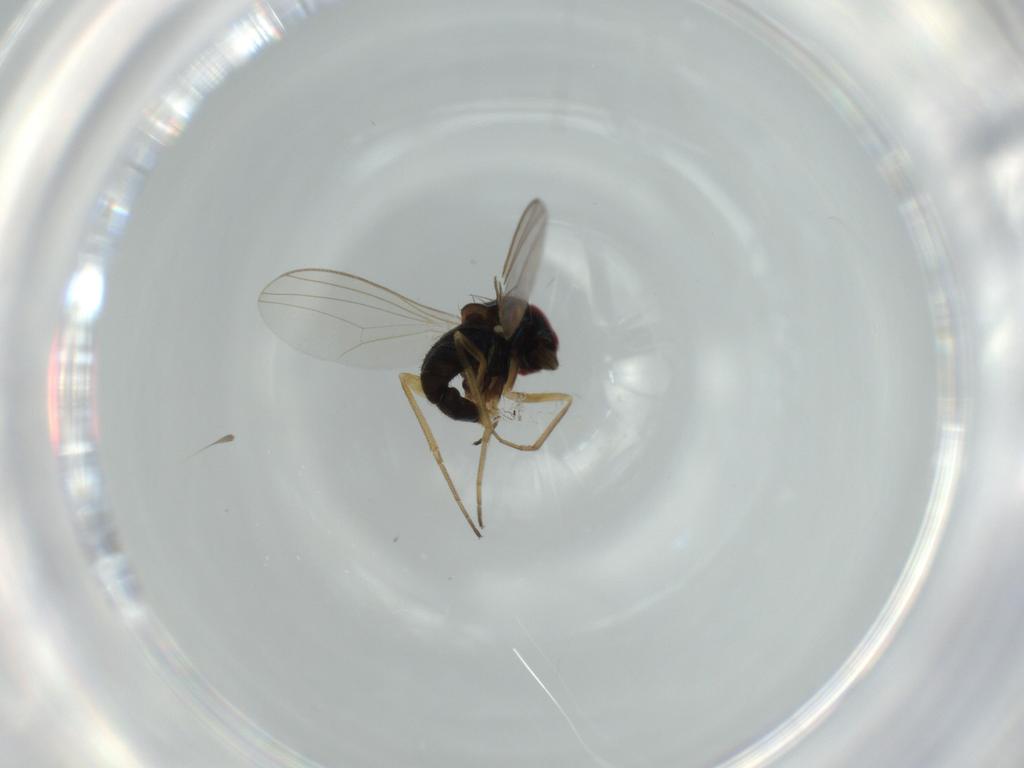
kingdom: Animalia
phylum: Arthropoda
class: Insecta
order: Diptera
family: Dolichopodidae
